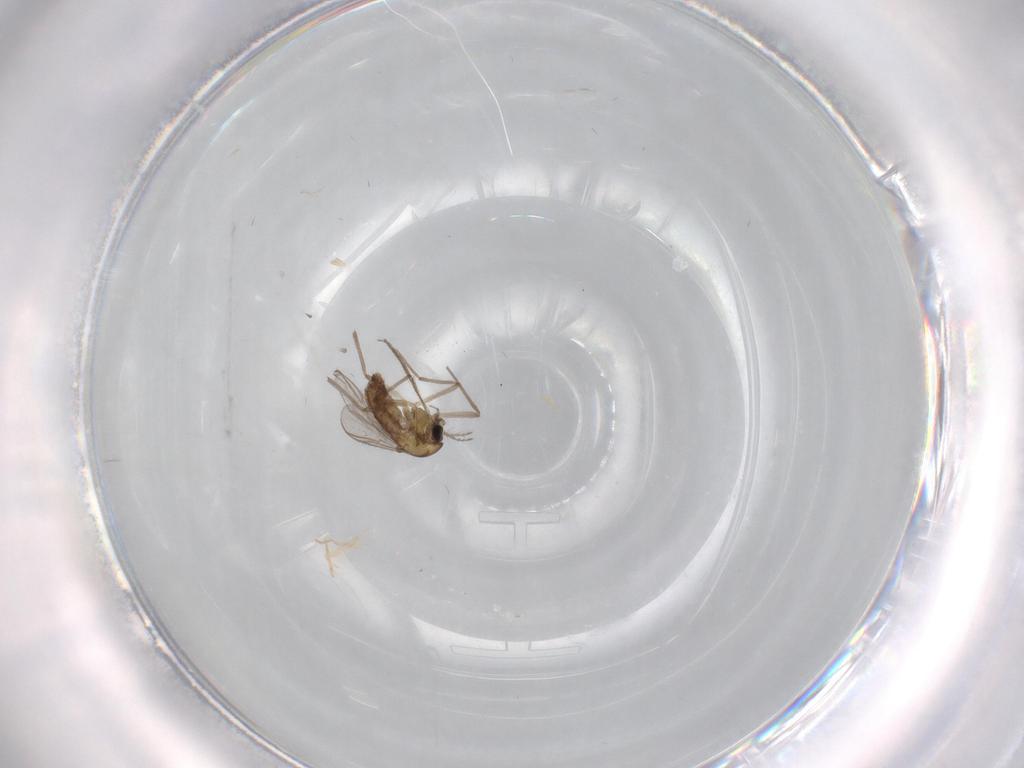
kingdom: Animalia
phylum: Arthropoda
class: Insecta
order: Diptera
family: Chironomidae
